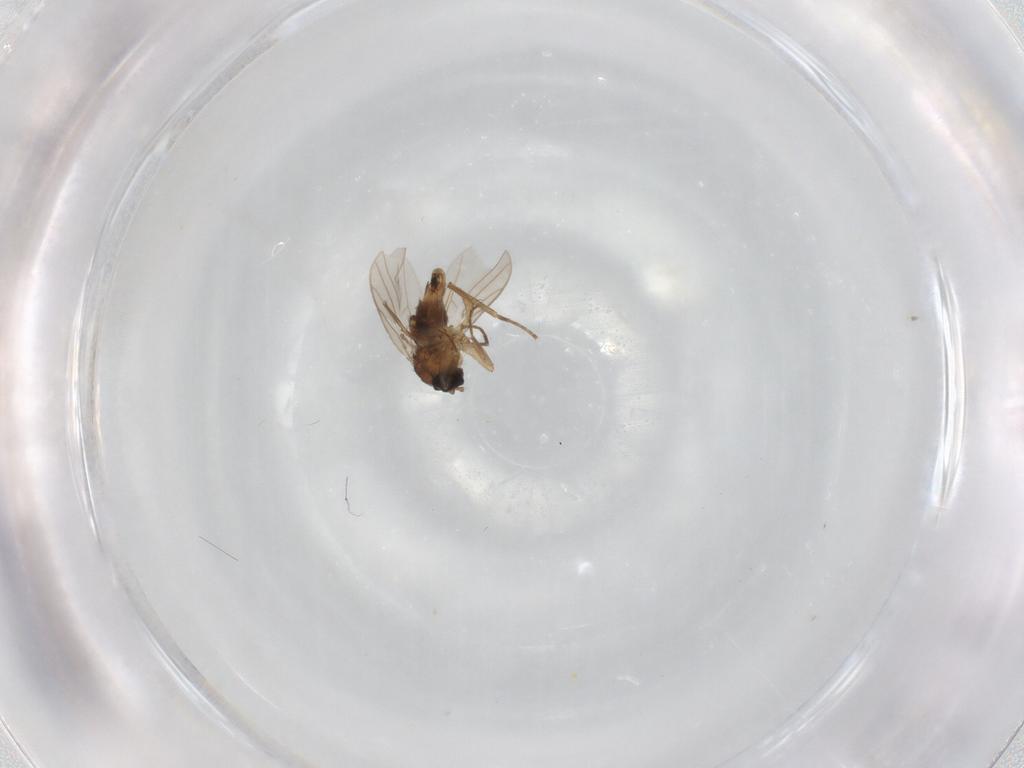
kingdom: Animalia
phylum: Arthropoda
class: Insecta
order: Diptera
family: Hybotidae
